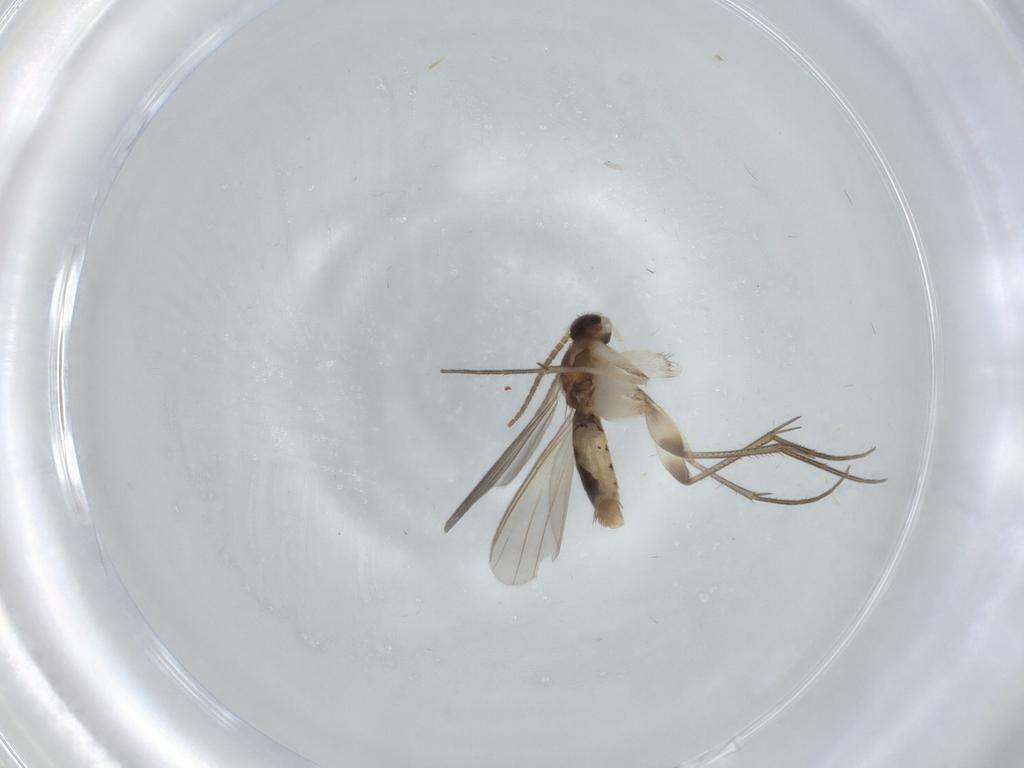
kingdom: Animalia
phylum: Arthropoda
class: Insecta
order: Diptera
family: Mycetophilidae
